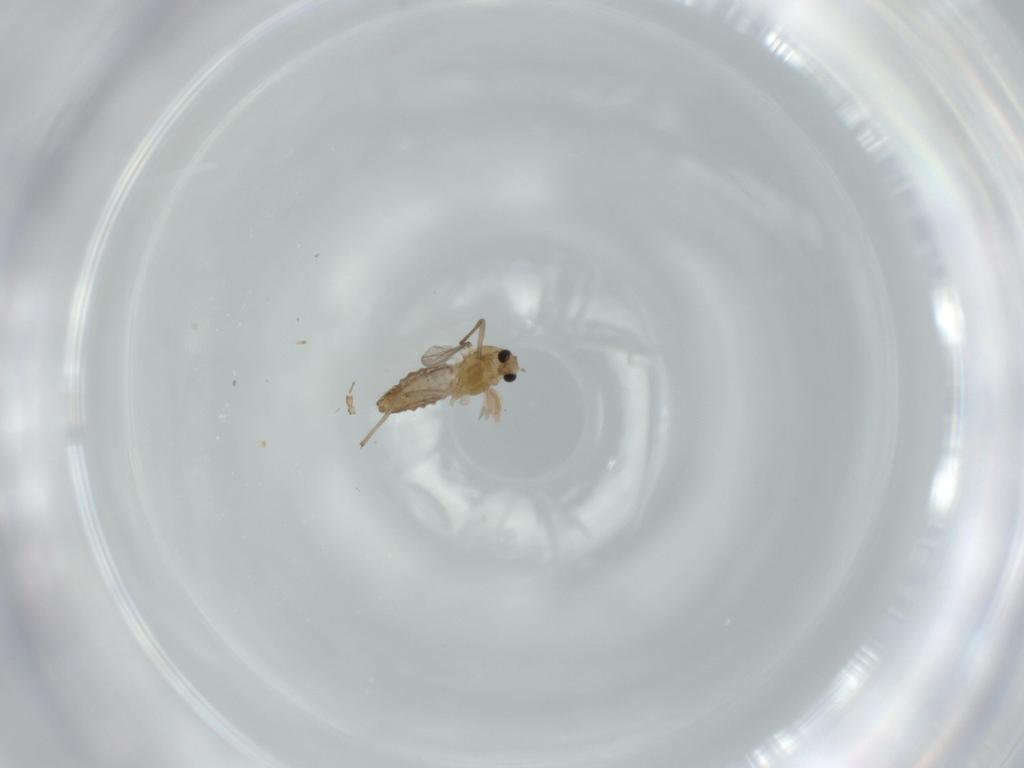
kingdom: Animalia
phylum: Arthropoda
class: Insecta
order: Diptera
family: Chironomidae
